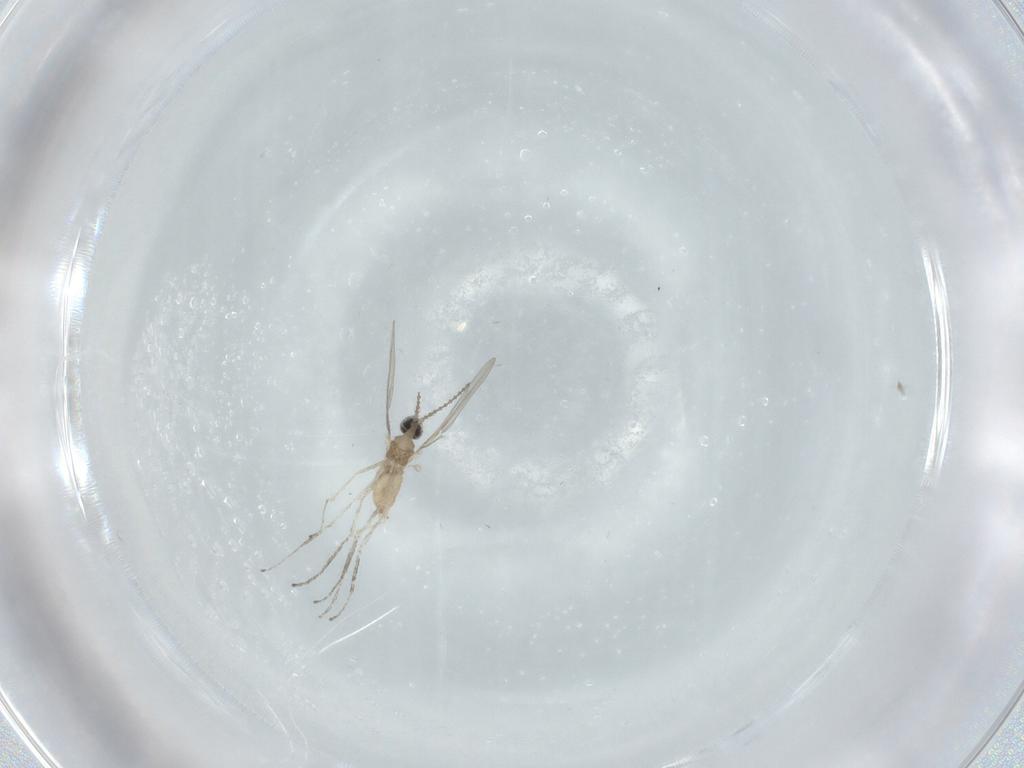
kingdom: Animalia
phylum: Arthropoda
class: Insecta
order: Diptera
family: Cecidomyiidae
